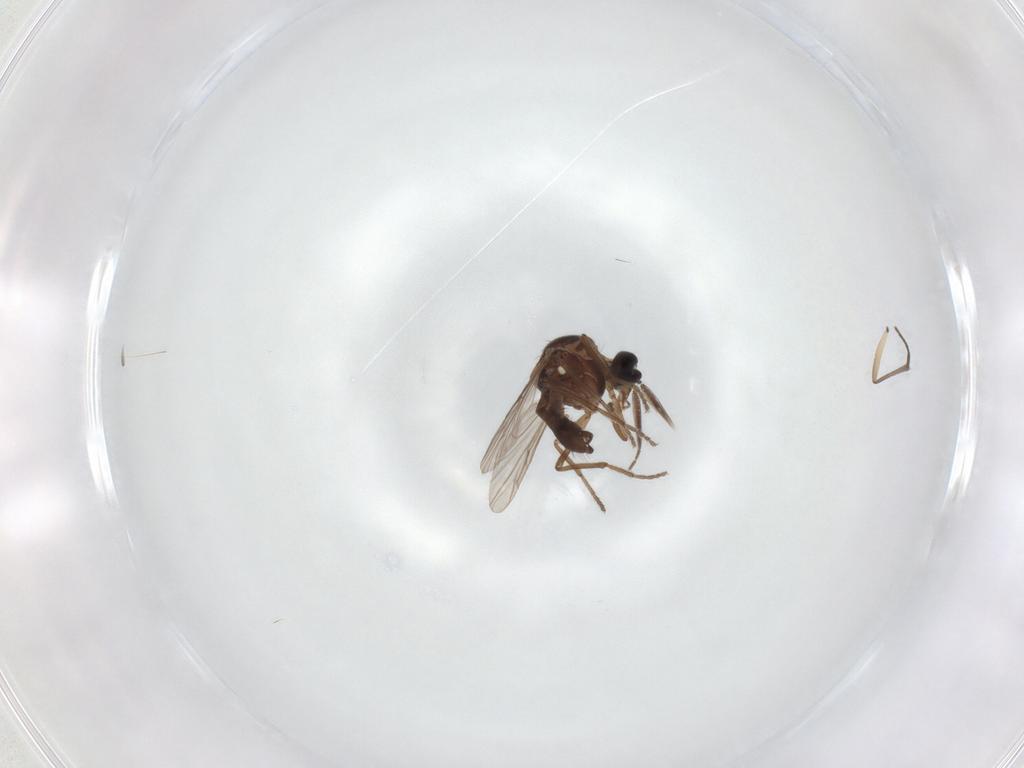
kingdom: Animalia
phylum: Arthropoda
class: Insecta
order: Diptera
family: Ceratopogonidae
